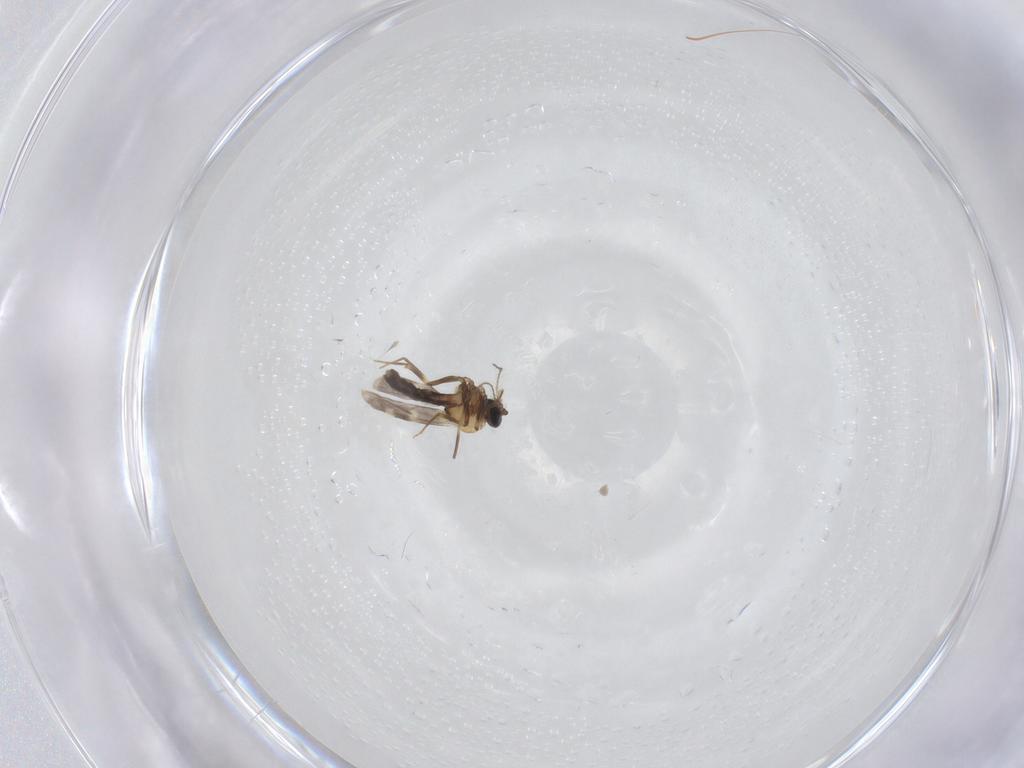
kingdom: Animalia
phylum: Arthropoda
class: Insecta
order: Diptera
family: Ceratopogonidae
